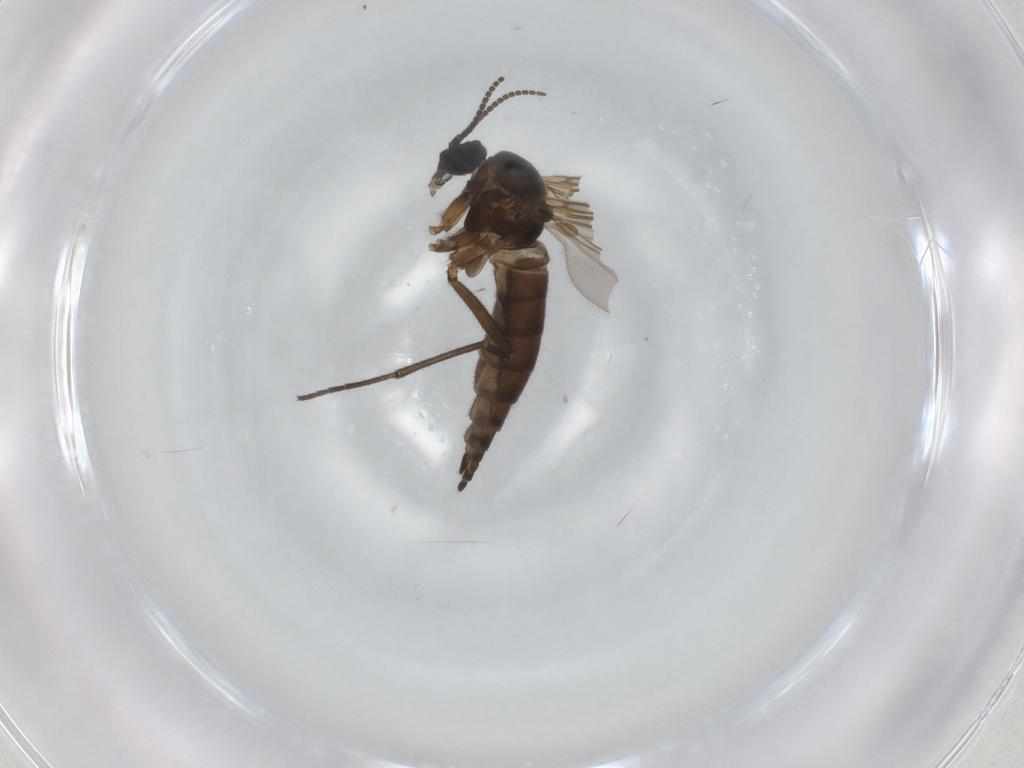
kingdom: Animalia
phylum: Arthropoda
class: Insecta
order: Diptera
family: Sciaridae
